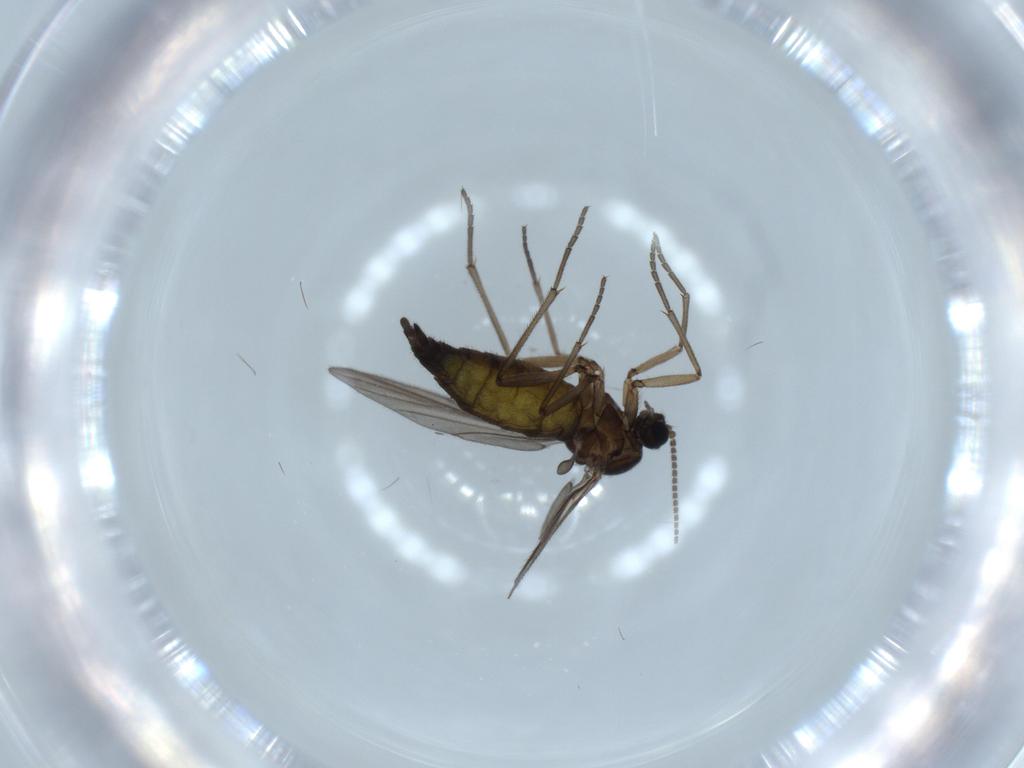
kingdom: Animalia
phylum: Arthropoda
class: Insecta
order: Diptera
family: Sciaridae
